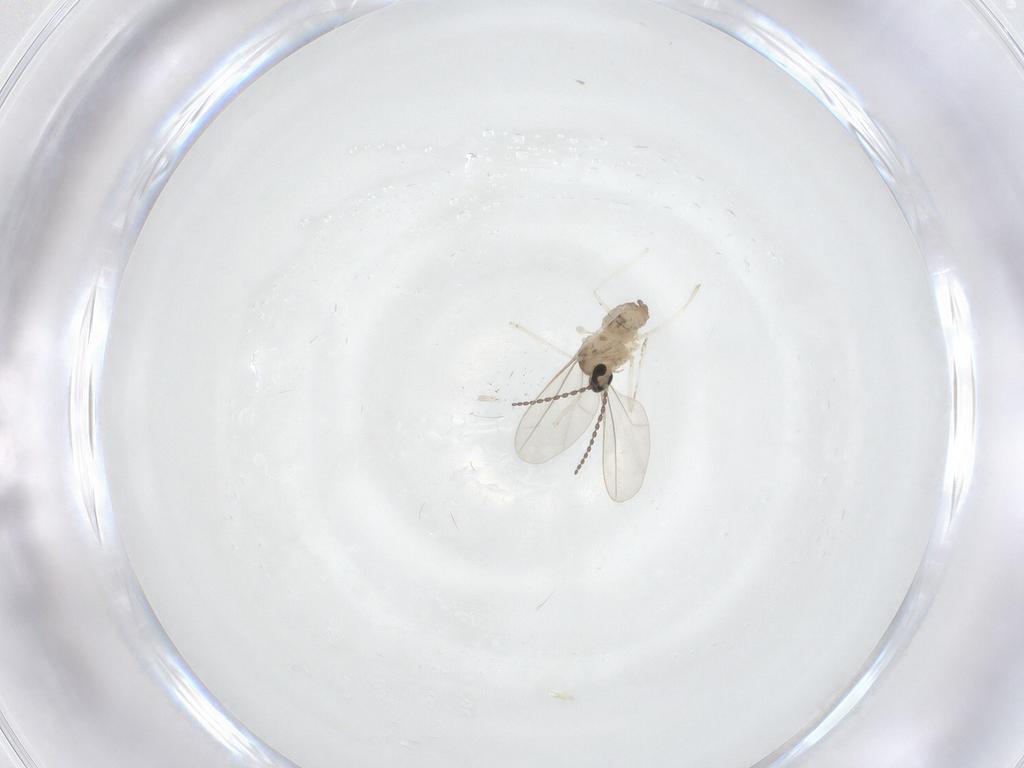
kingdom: Animalia
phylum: Arthropoda
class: Insecta
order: Diptera
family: Cecidomyiidae
